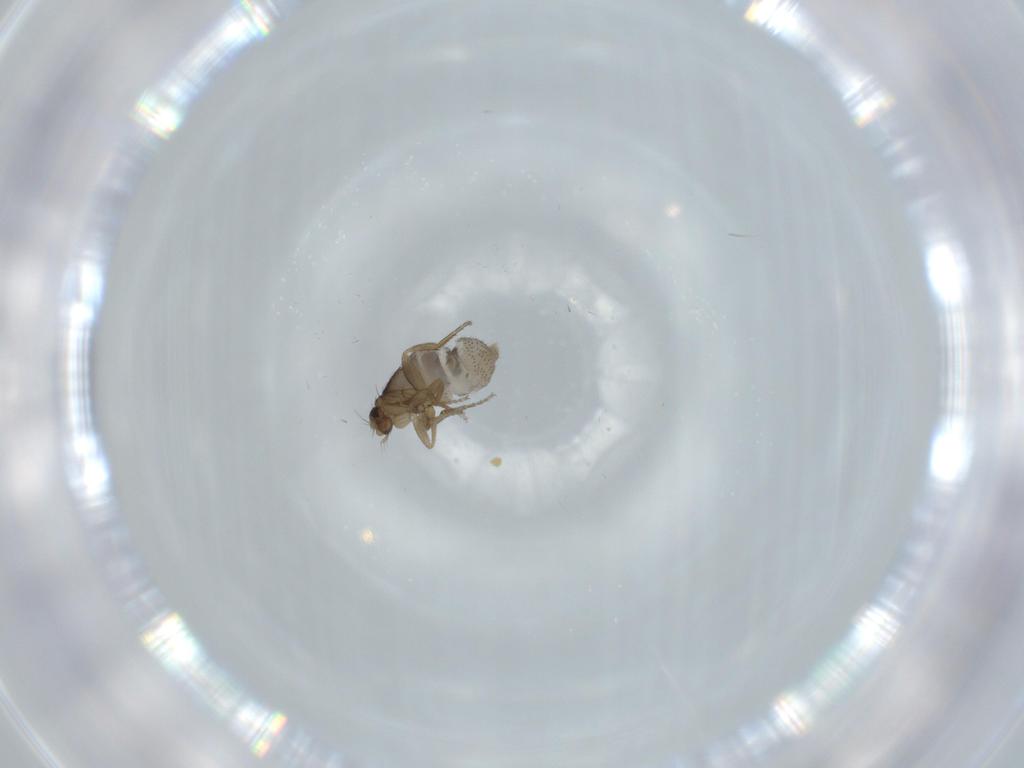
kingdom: Animalia
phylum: Arthropoda
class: Insecta
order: Diptera
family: Phoridae
